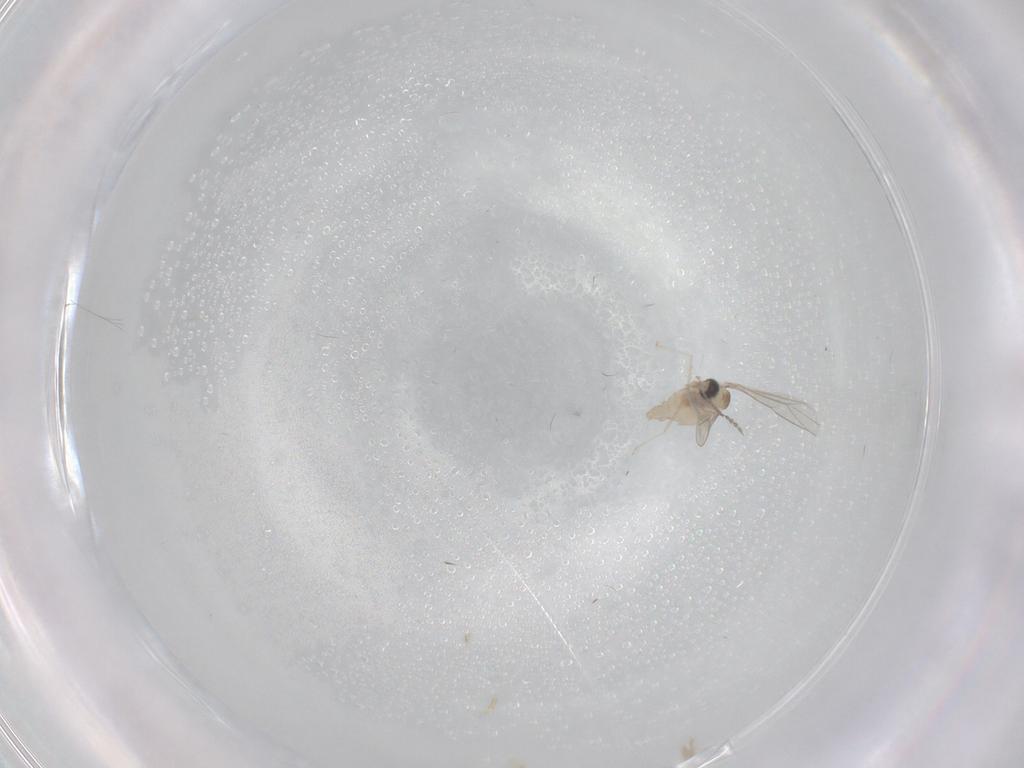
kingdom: Animalia
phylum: Arthropoda
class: Insecta
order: Diptera
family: Cecidomyiidae
